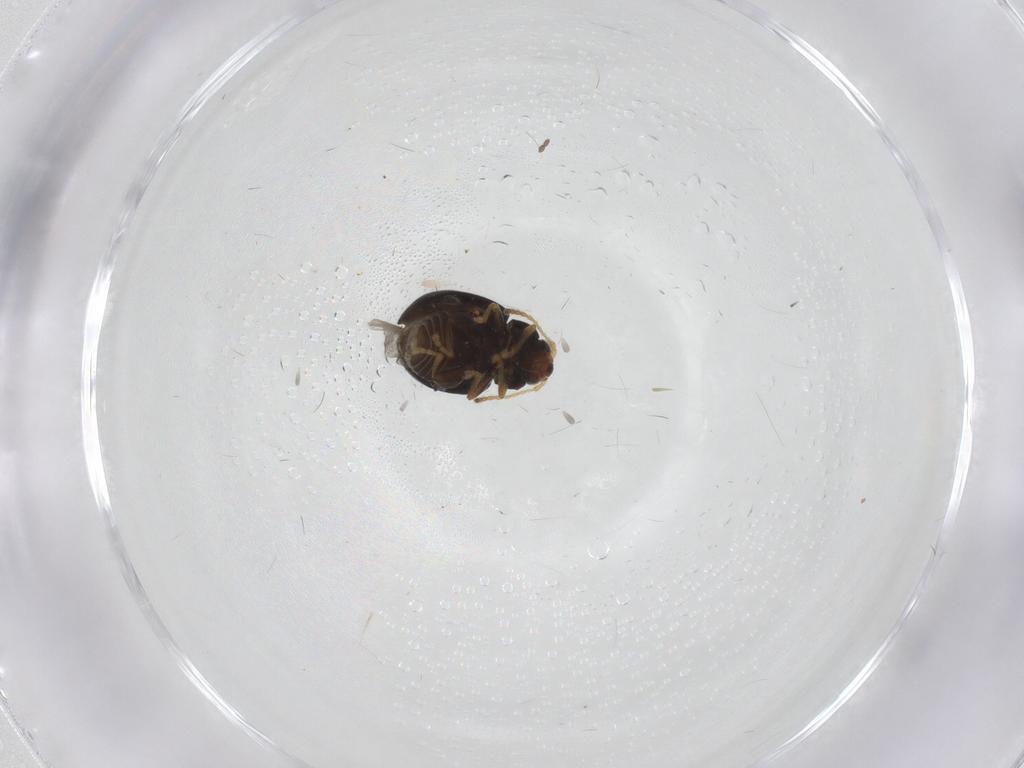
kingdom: Animalia
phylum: Arthropoda
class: Insecta
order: Coleoptera
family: Chrysomelidae
